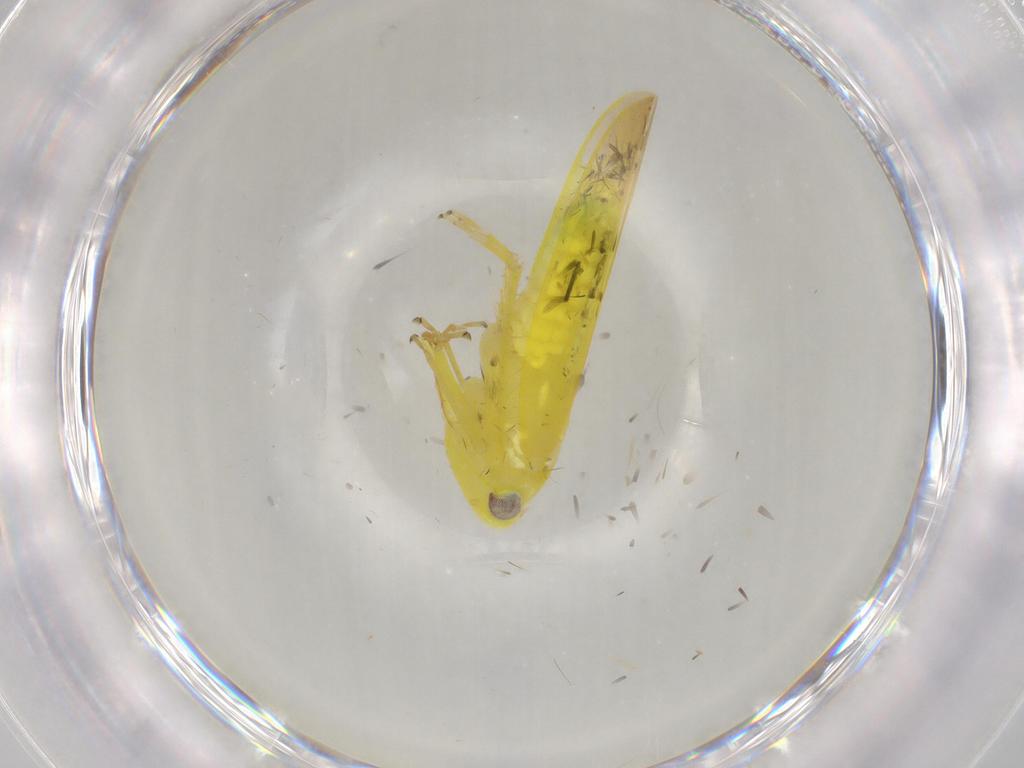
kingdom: Animalia
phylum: Arthropoda
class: Insecta
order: Hemiptera
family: Cicadellidae
